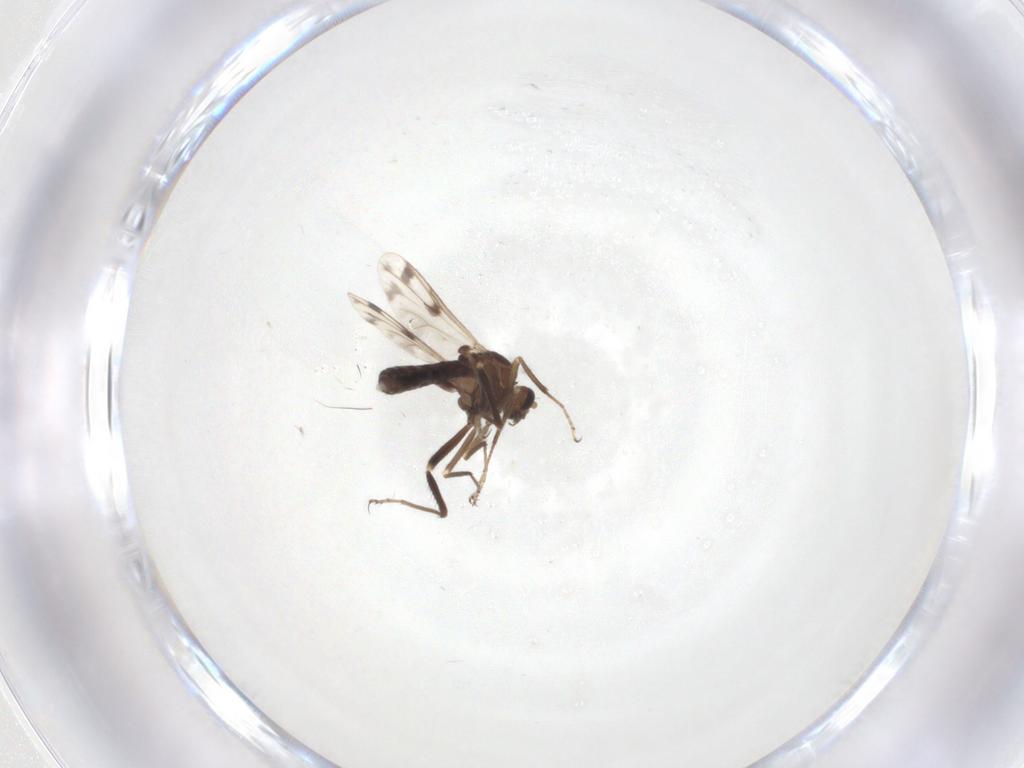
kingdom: Animalia
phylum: Arthropoda
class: Insecta
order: Diptera
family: Ceratopogonidae
